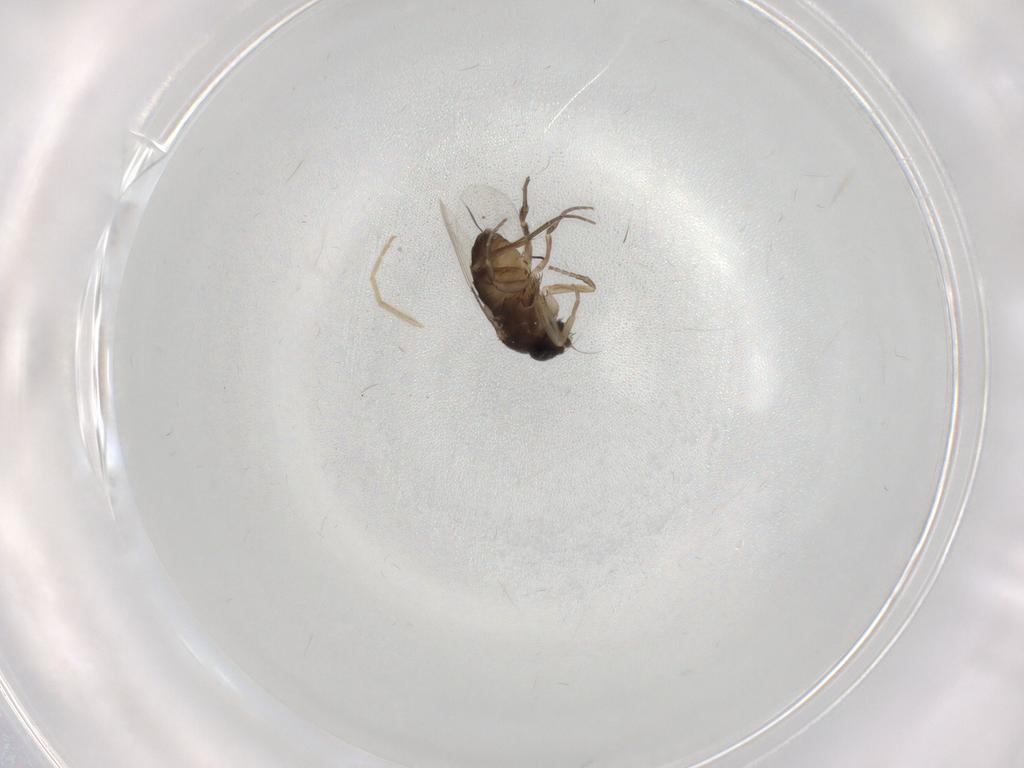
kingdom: Animalia
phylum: Arthropoda
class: Insecta
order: Diptera
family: Phoridae
